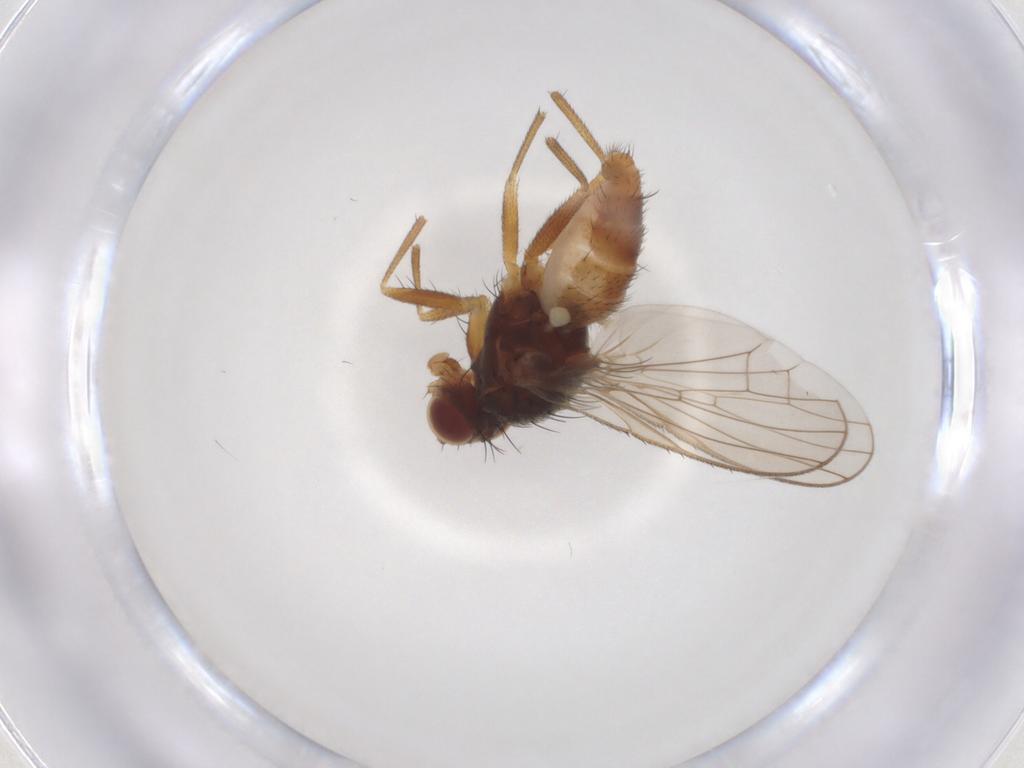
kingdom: Animalia
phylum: Arthropoda
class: Insecta
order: Diptera
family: Heleomyzidae
